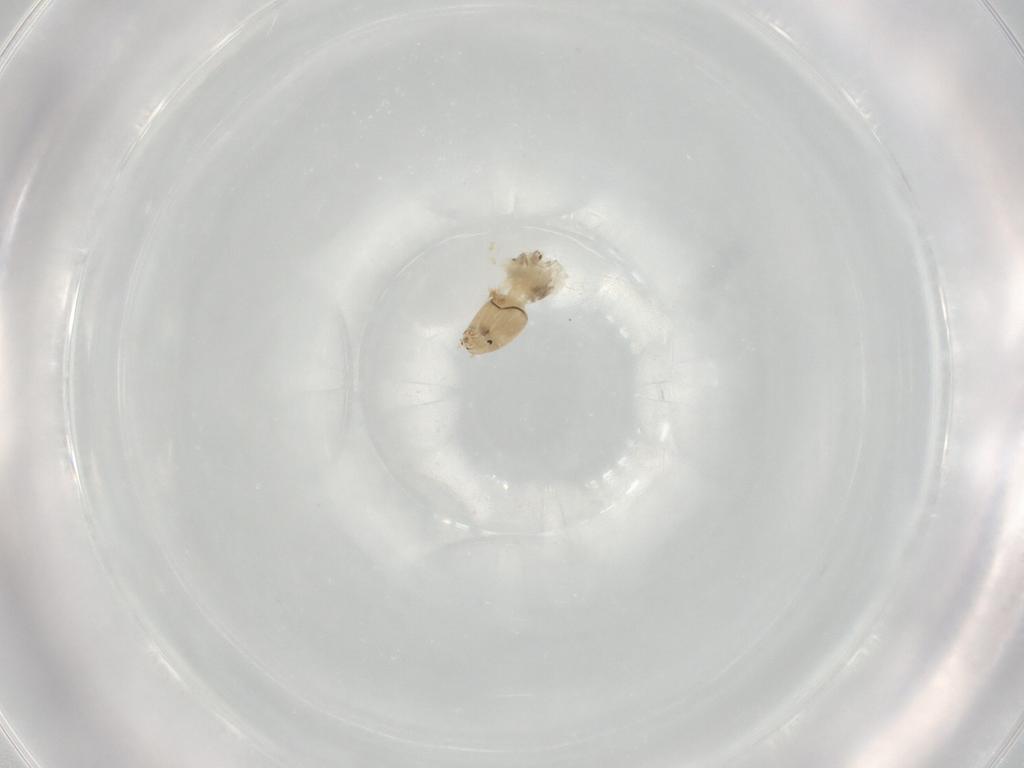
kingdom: Animalia
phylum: Arthropoda
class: Insecta
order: Diptera
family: Chironomidae
